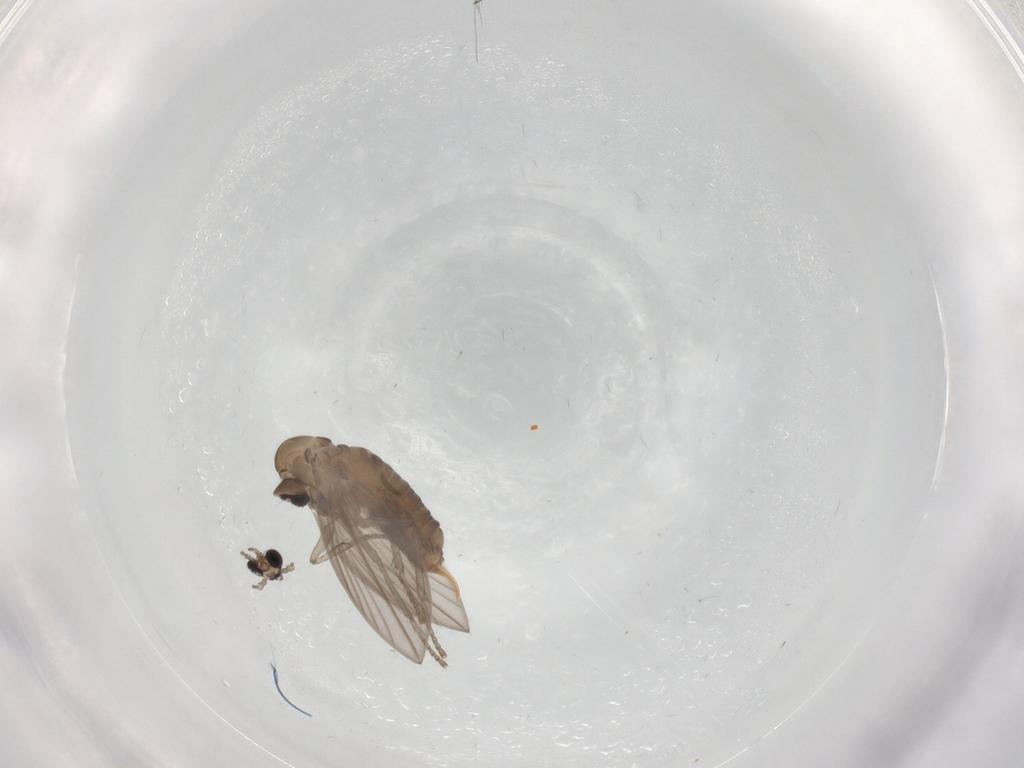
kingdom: Animalia
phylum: Arthropoda
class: Insecta
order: Diptera
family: Psychodidae
